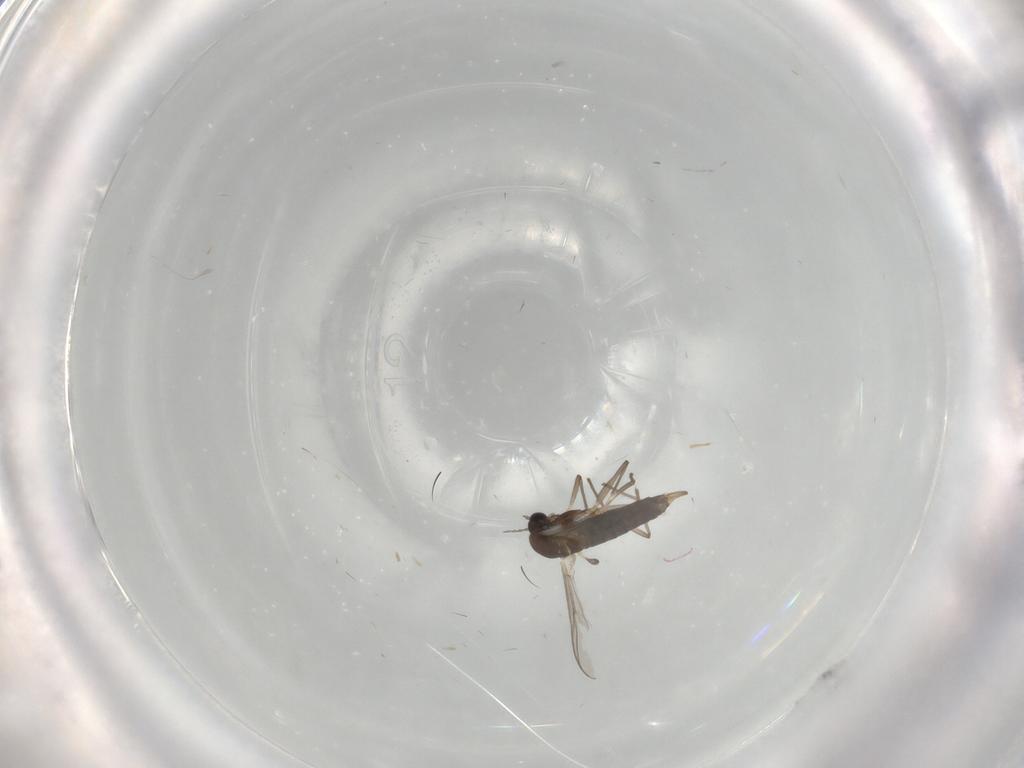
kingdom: Animalia
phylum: Arthropoda
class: Insecta
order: Diptera
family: Chironomidae
